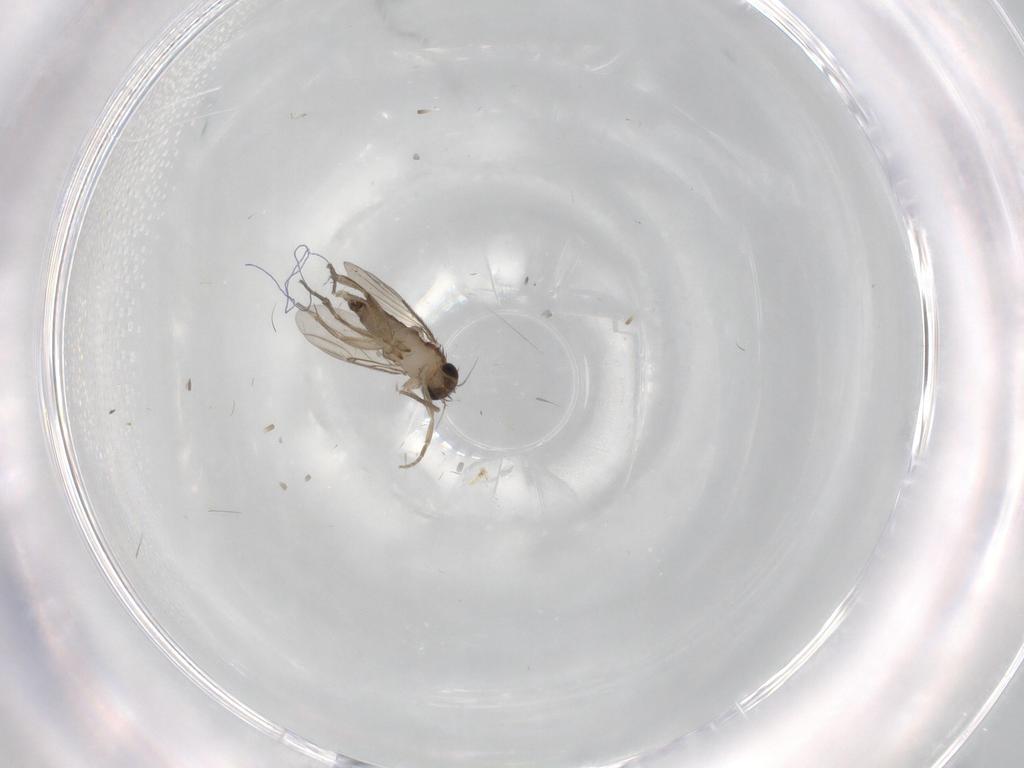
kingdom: Animalia
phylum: Arthropoda
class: Insecta
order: Diptera
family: Phoridae
